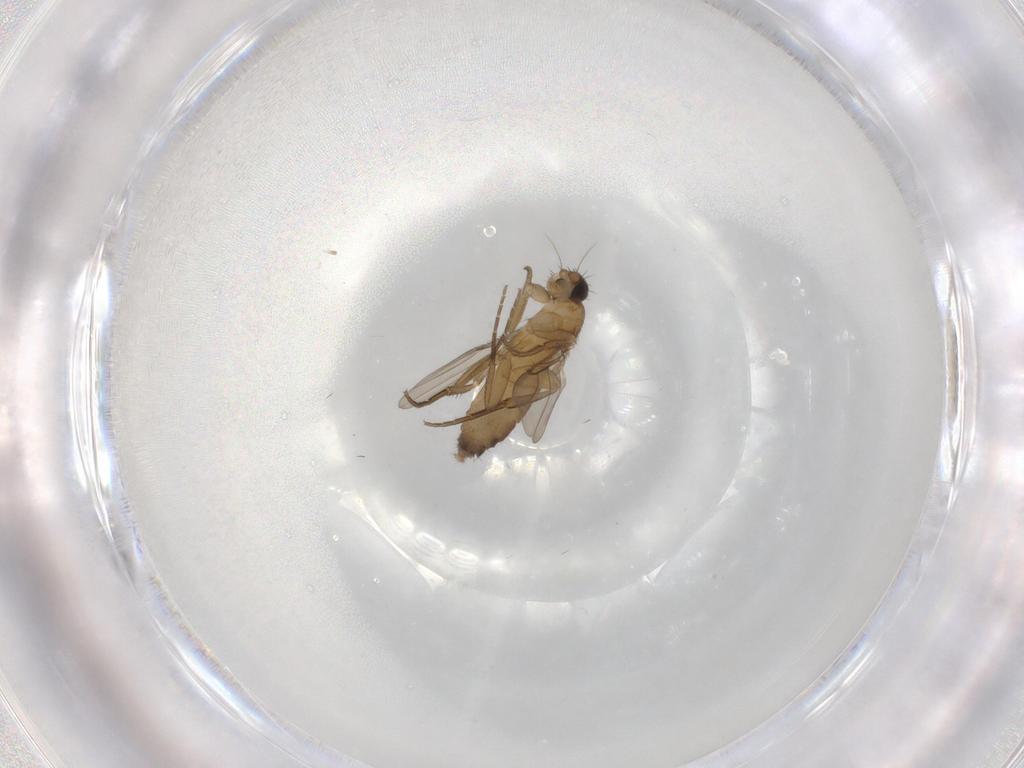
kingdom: Animalia
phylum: Arthropoda
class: Insecta
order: Diptera
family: Phoridae
